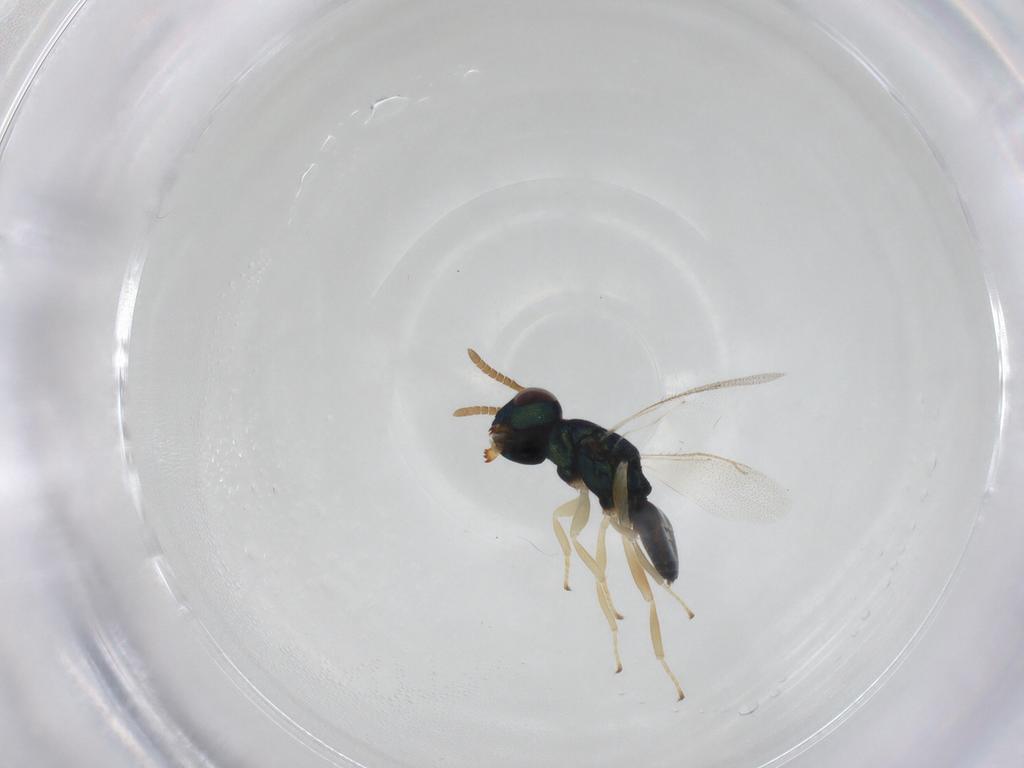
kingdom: Animalia
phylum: Arthropoda
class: Insecta
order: Hymenoptera
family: Pteromalidae
